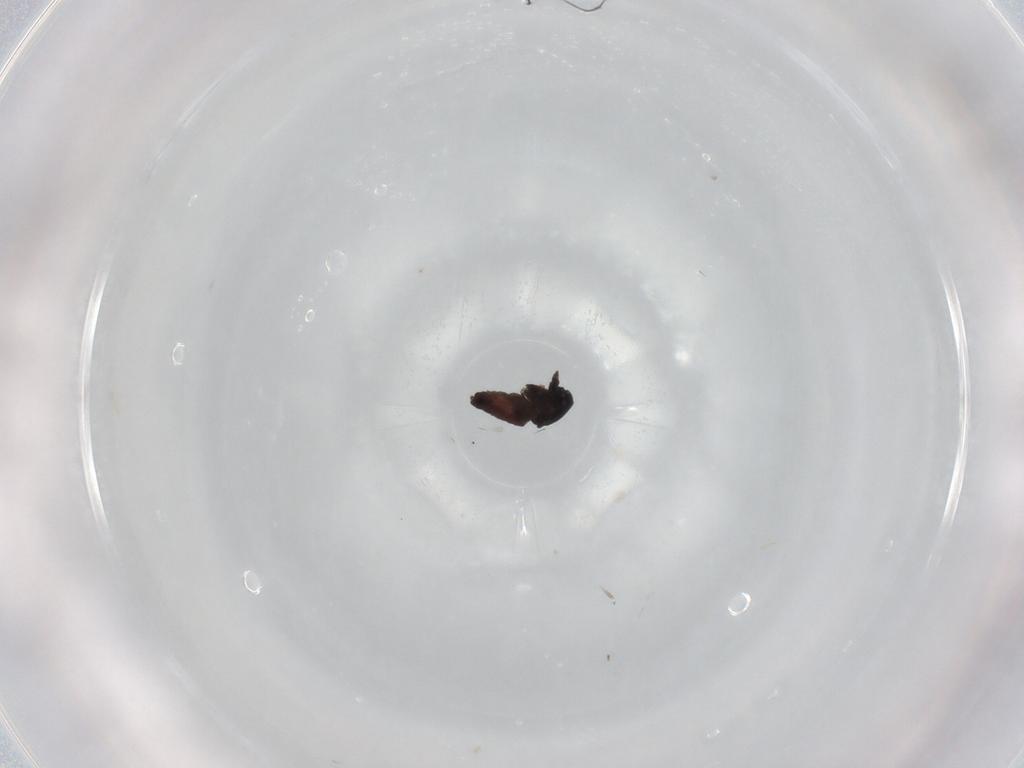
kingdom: Animalia
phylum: Arthropoda
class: Insecta
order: Diptera
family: Ceratopogonidae
